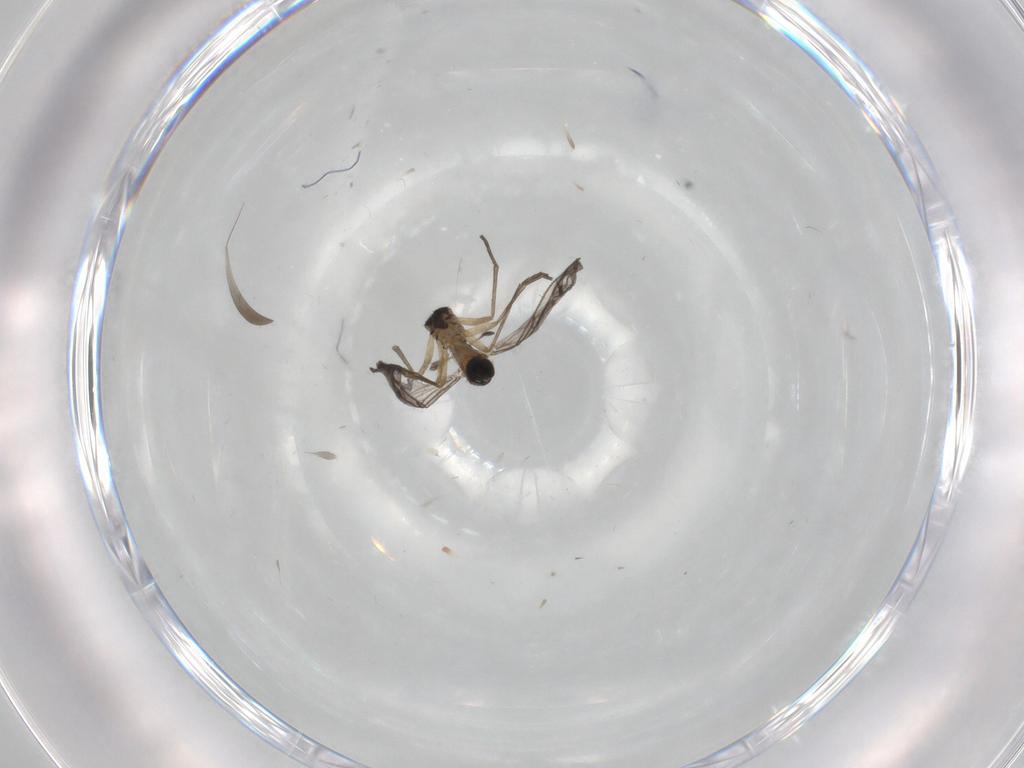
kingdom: Animalia
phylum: Arthropoda
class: Insecta
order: Diptera
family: Sciaridae
